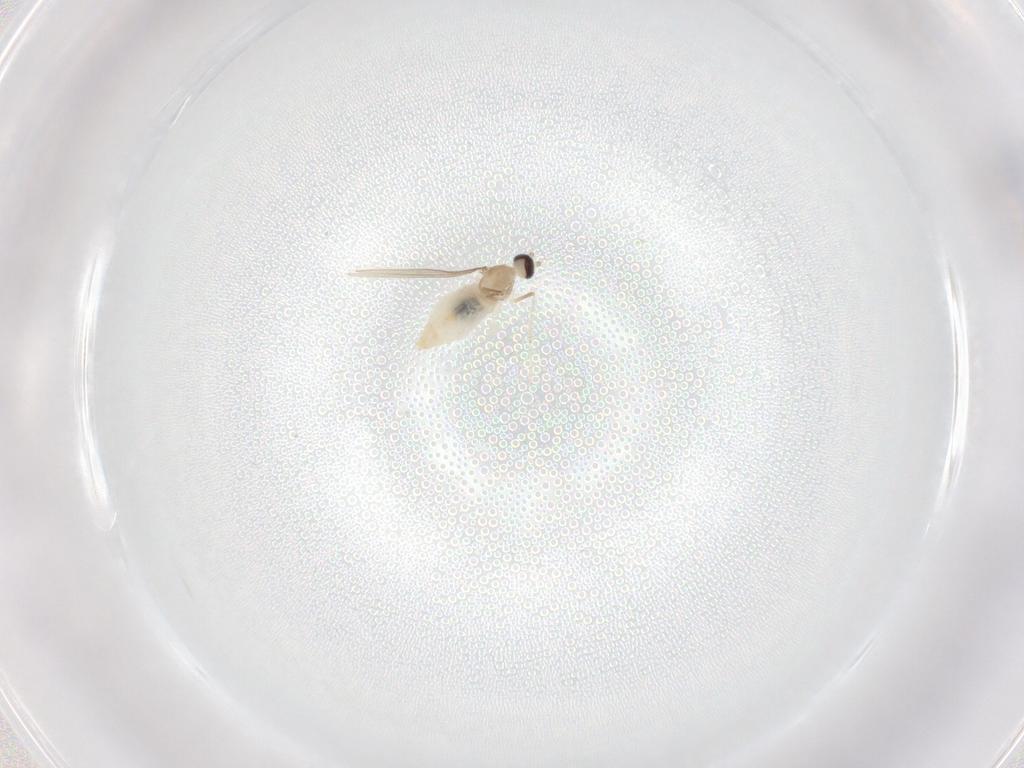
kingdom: Animalia
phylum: Arthropoda
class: Insecta
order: Diptera
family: Cecidomyiidae
